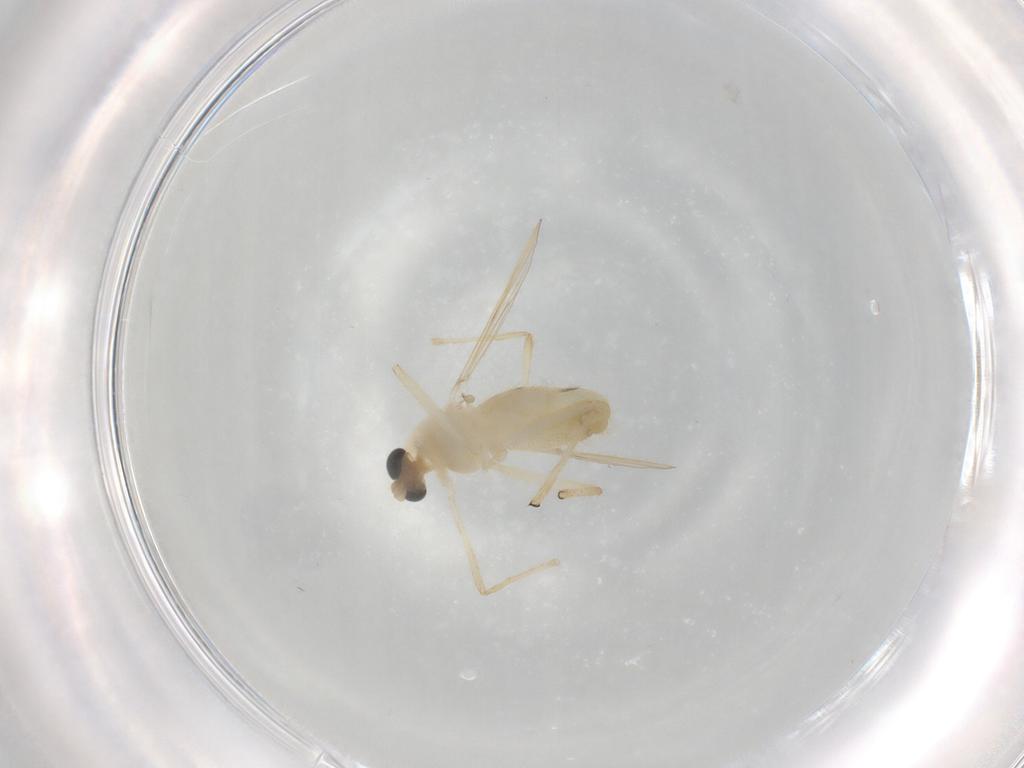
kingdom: Animalia
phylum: Arthropoda
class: Insecta
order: Diptera
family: Chironomidae
